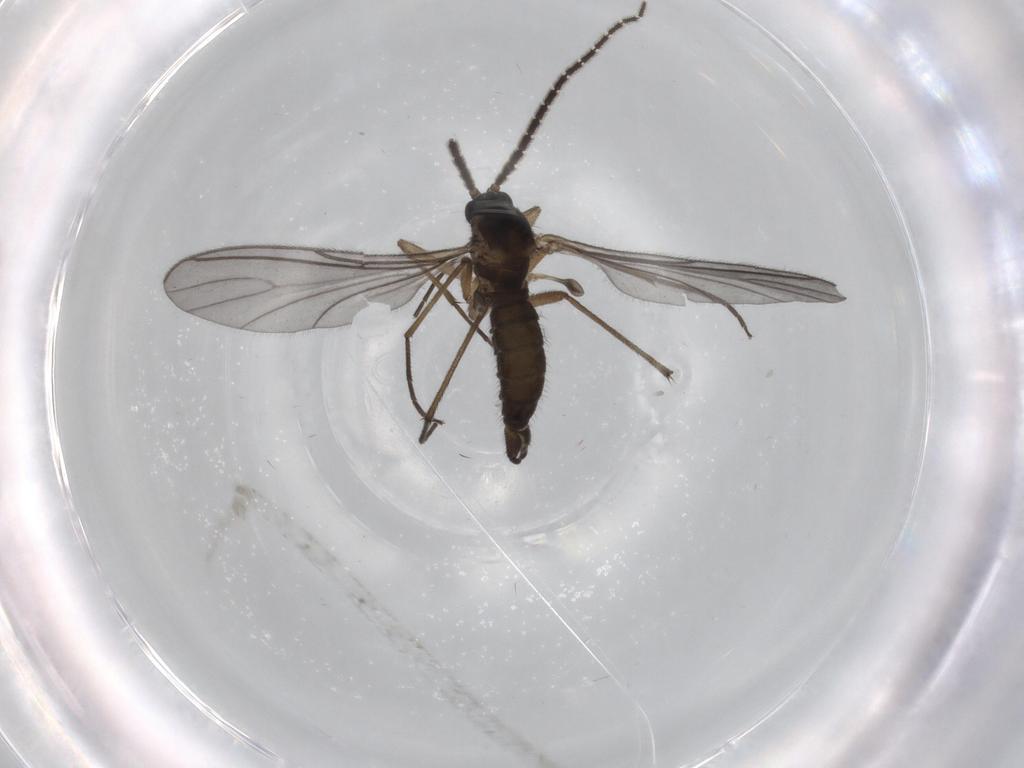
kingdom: Animalia
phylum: Arthropoda
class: Insecta
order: Diptera
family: Sciaridae
